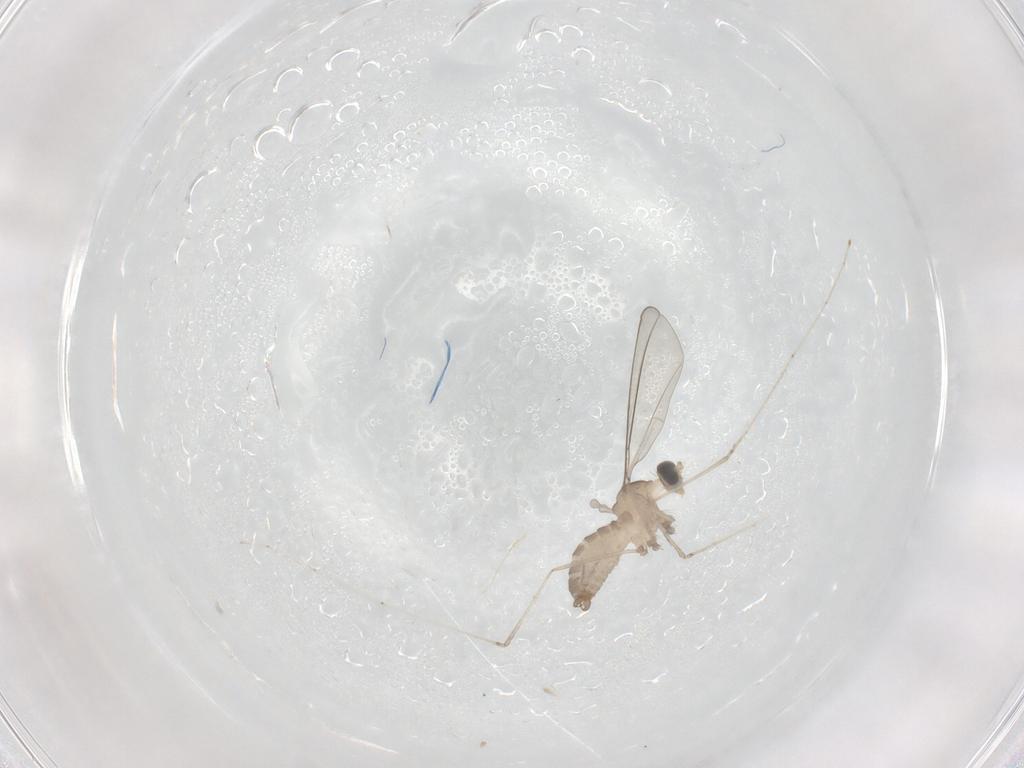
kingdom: Animalia
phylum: Arthropoda
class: Insecta
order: Diptera
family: Cecidomyiidae
